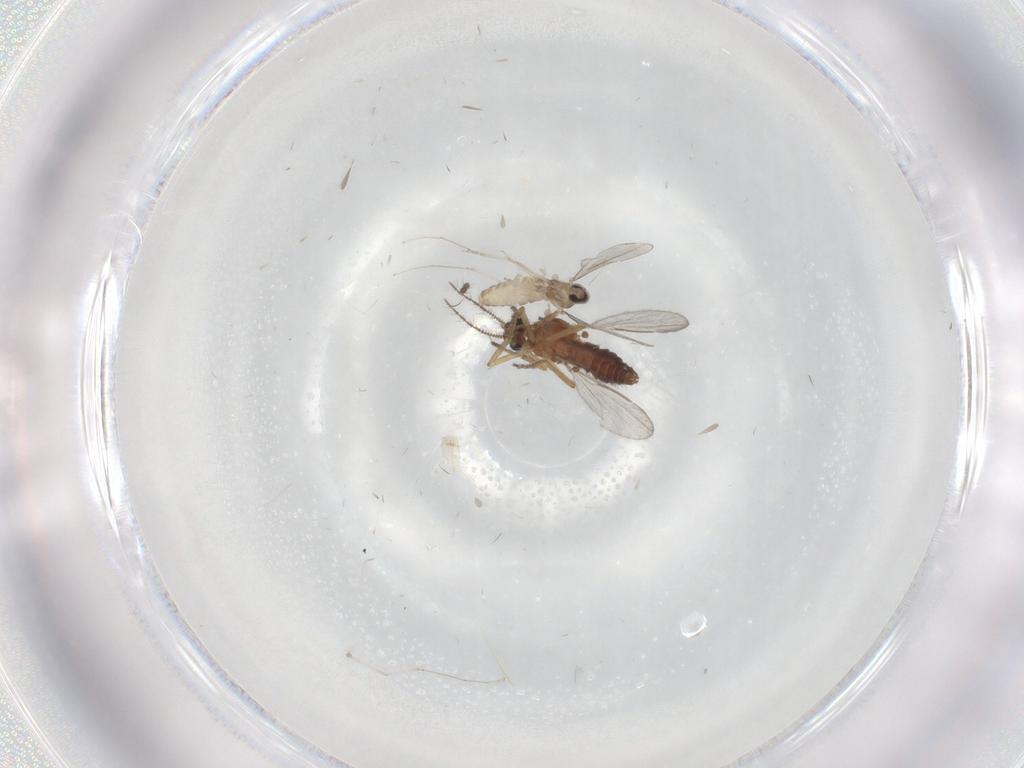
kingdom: Animalia
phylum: Arthropoda
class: Insecta
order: Diptera
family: Ceratopogonidae
